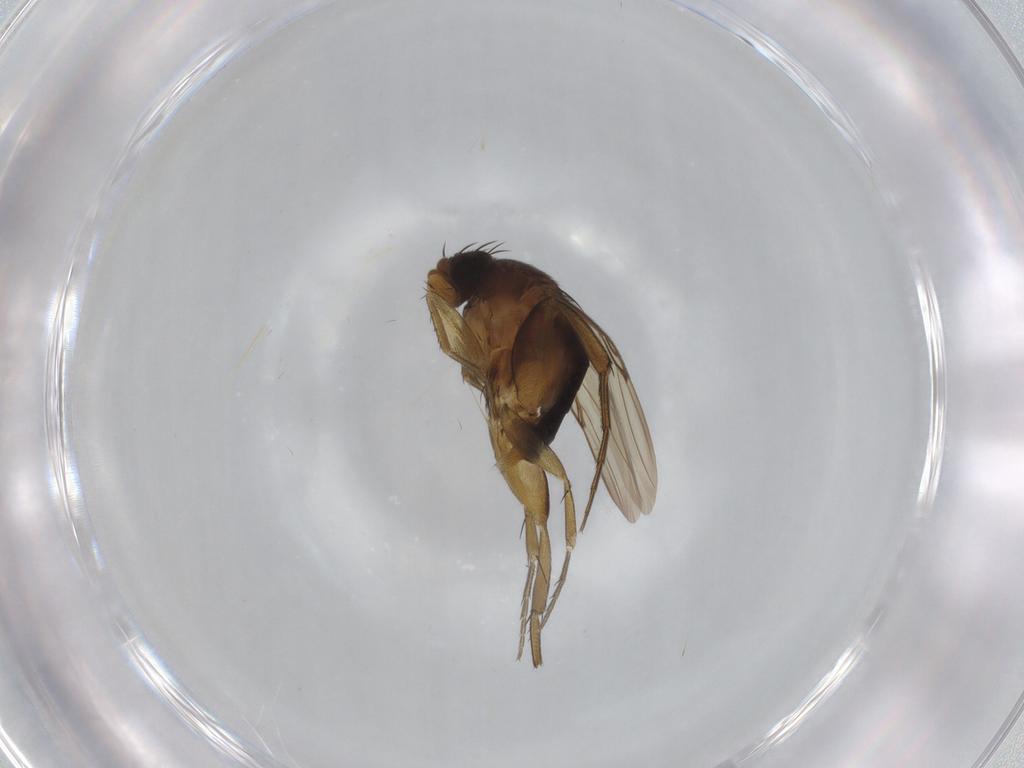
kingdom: Animalia
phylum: Arthropoda
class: Insecta
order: Diptera
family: Phoridae
